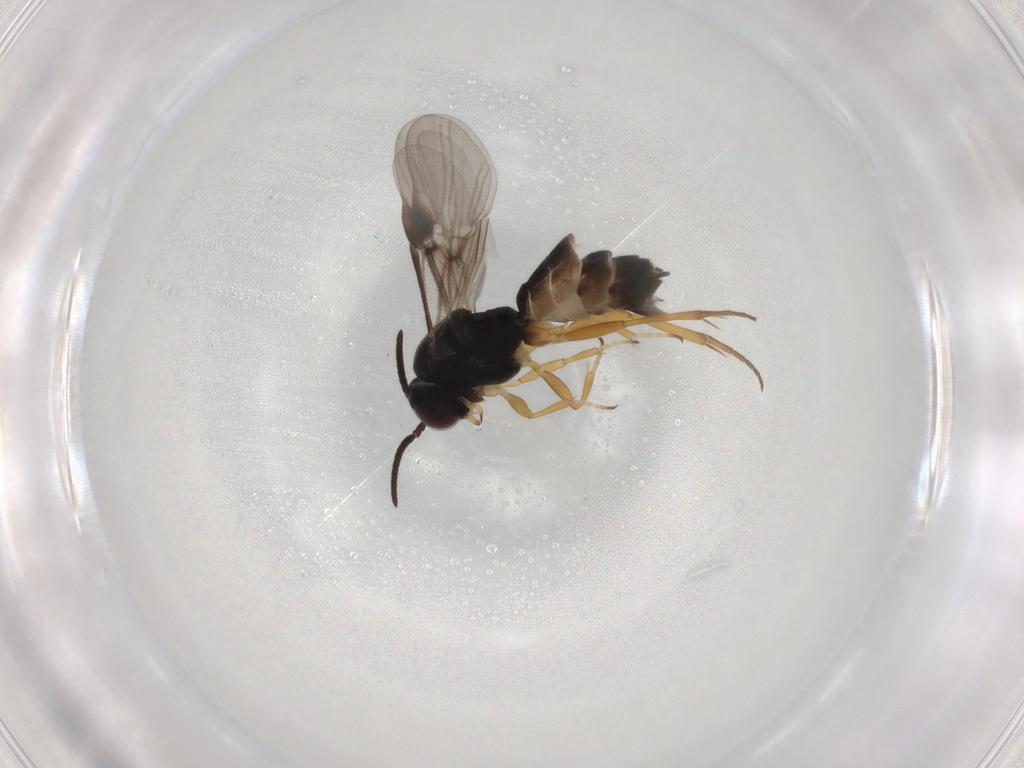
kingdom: Animalia
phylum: Arthropoda
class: Insecta
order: Hymenoptera
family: Braconidae
